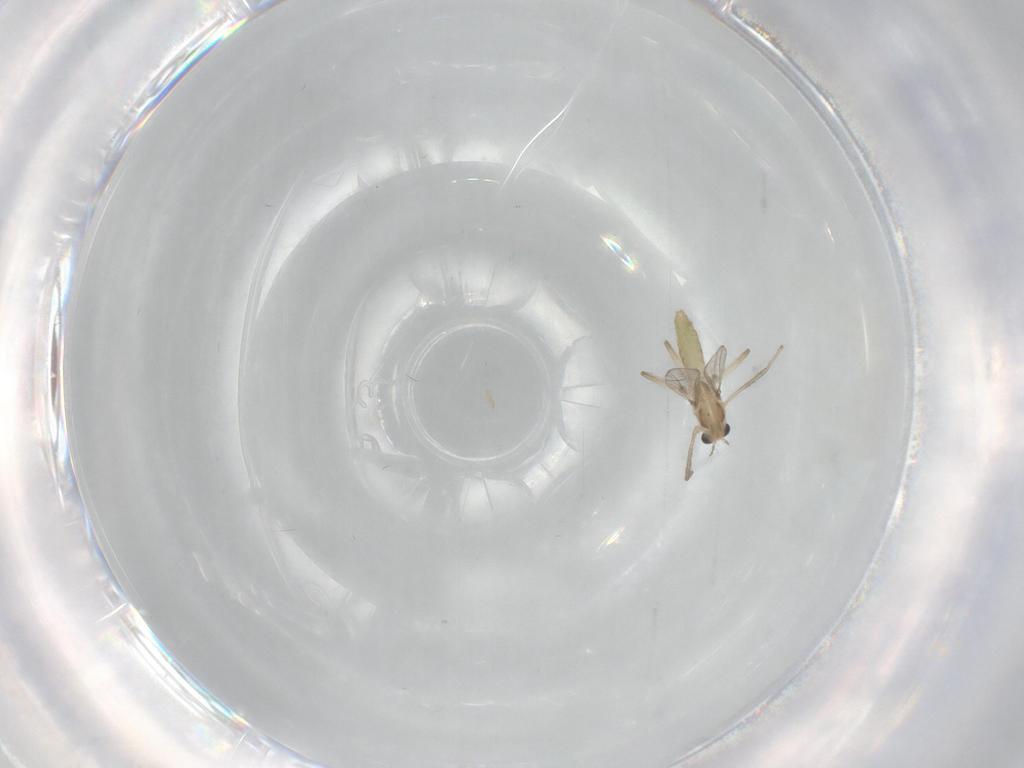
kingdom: Animalia
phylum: Arthropoda
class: Insecta
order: Diptera
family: Chironomidae
